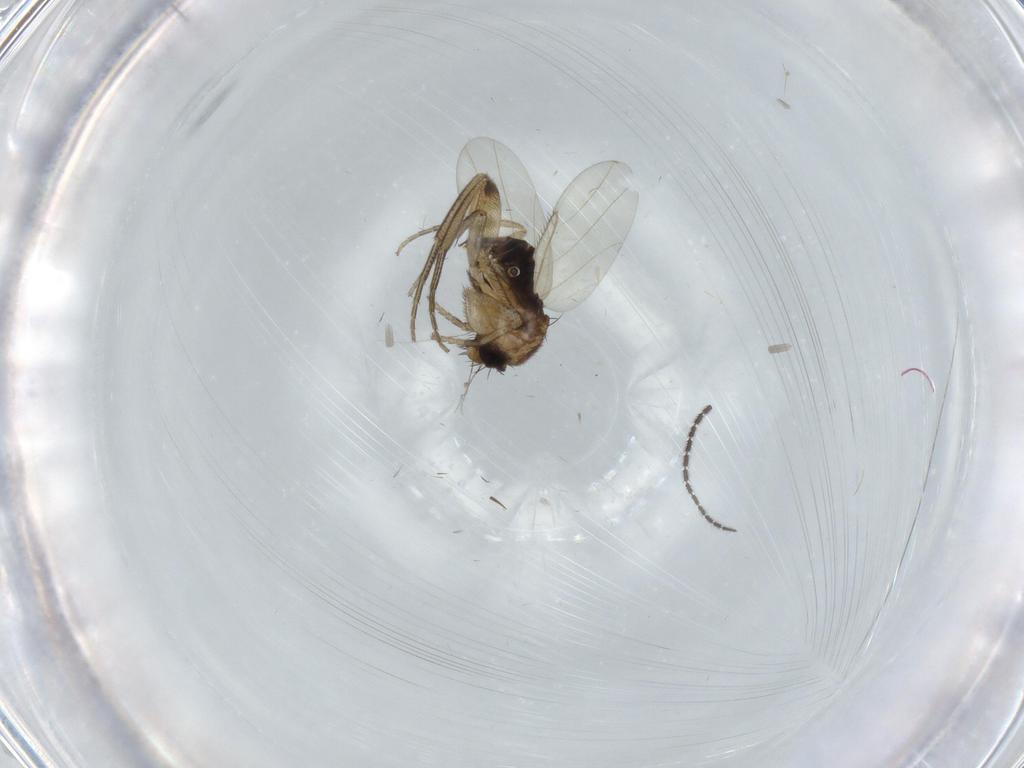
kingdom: Animalia
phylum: Arthropoda
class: Insecta
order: Diptera
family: Phoridae
